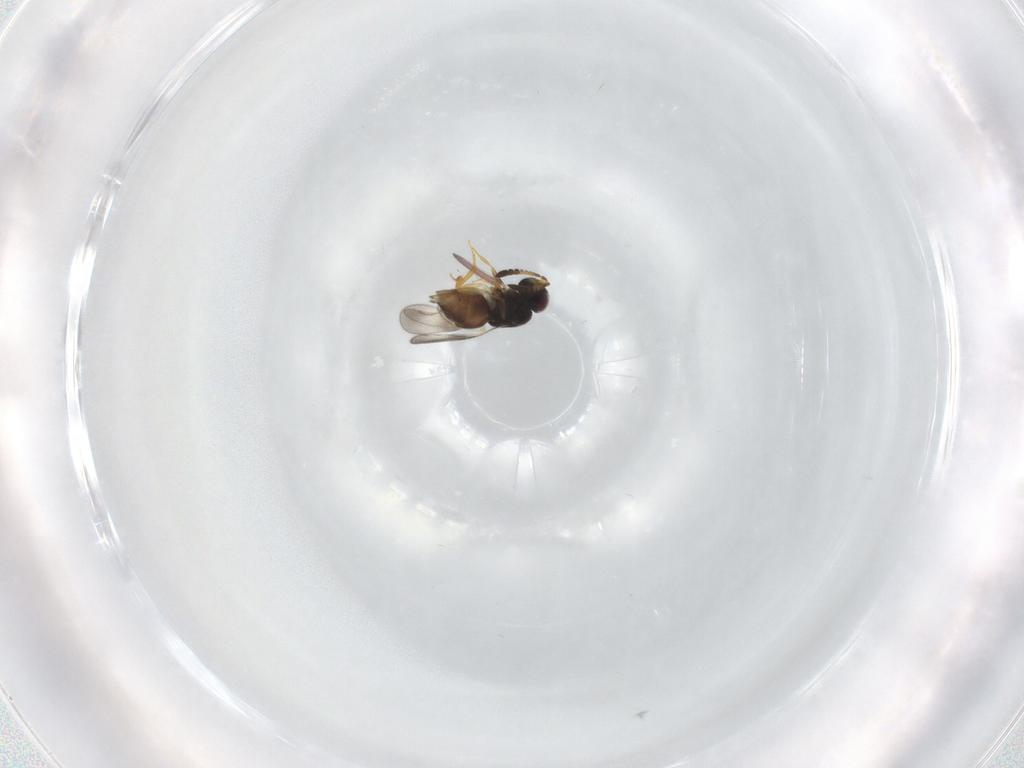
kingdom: Animalia
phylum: Arthropoda
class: Insecta
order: Hymenoptera
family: Formicidae
